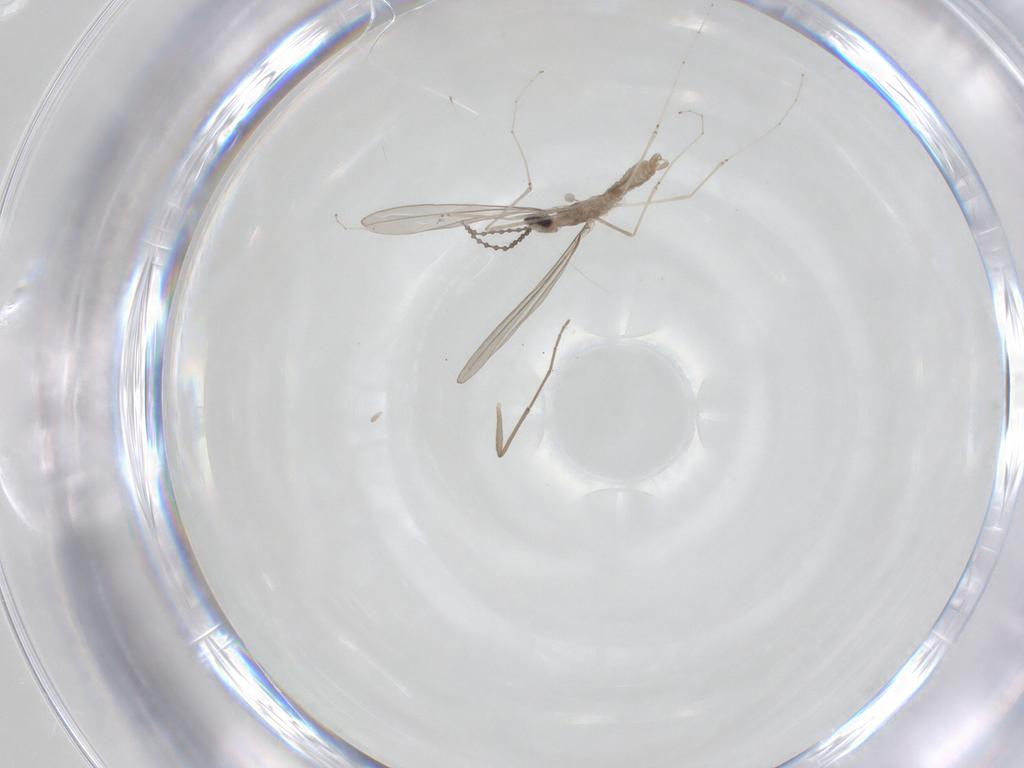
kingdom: Animalia
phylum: Arthropoda
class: Insecta
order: Diptera
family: Cecidomyiidae
